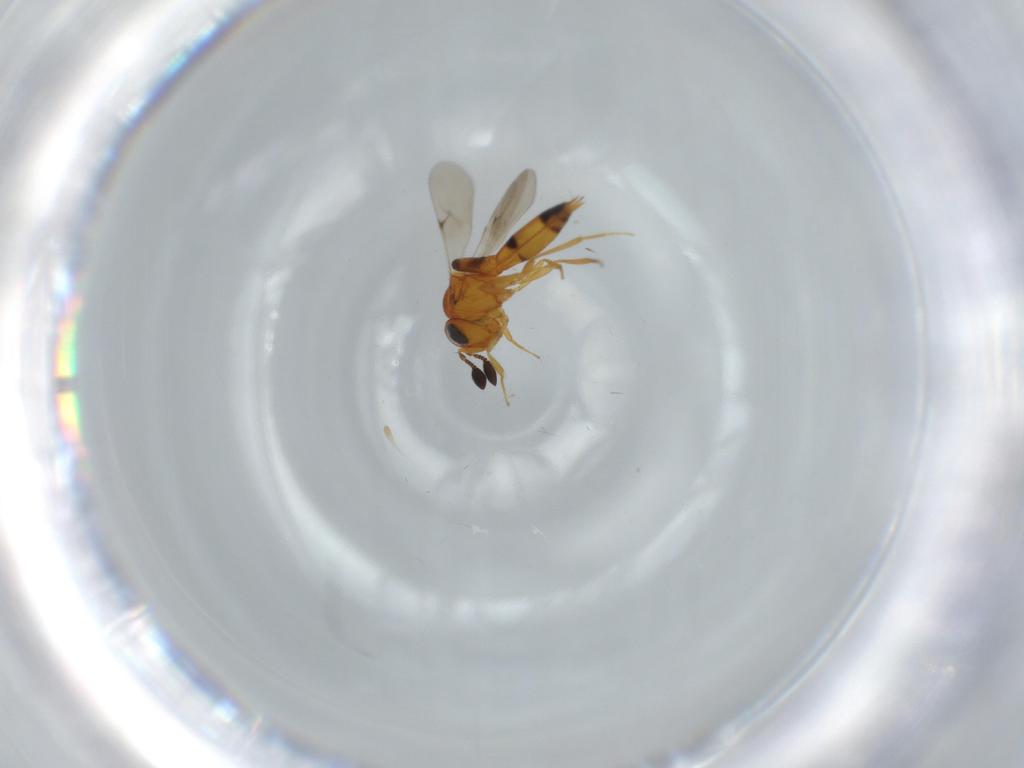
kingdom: Animalia
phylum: Arthropoda
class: Insecta
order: Hymenoptera
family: Scelionidae
